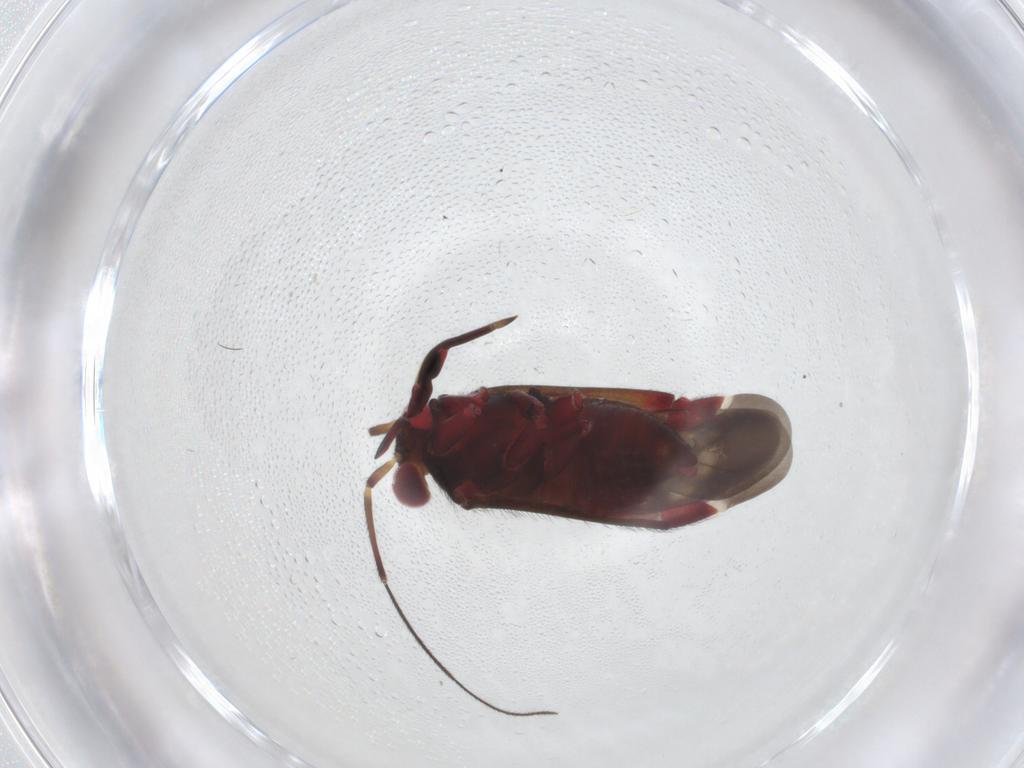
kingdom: Animalia
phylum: Arthropoda
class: Insecta
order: Hemiptera
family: Miridae
